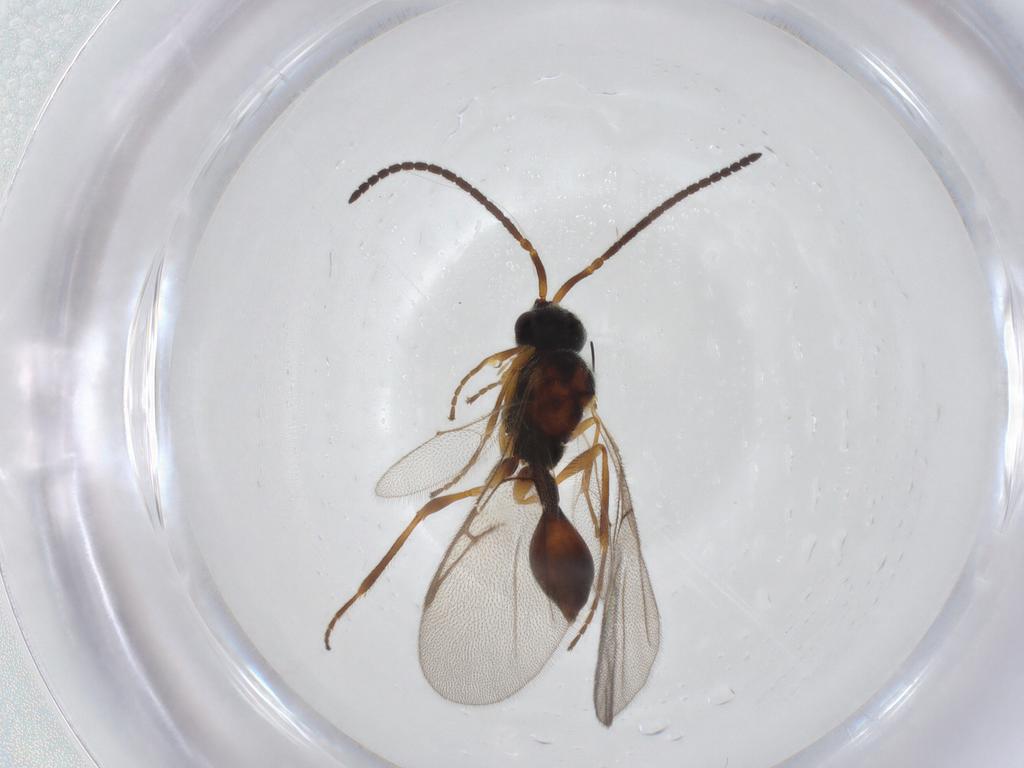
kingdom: Animalia
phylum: Arthropoda
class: Insecta
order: Hymenoptera
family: Diapriidae
